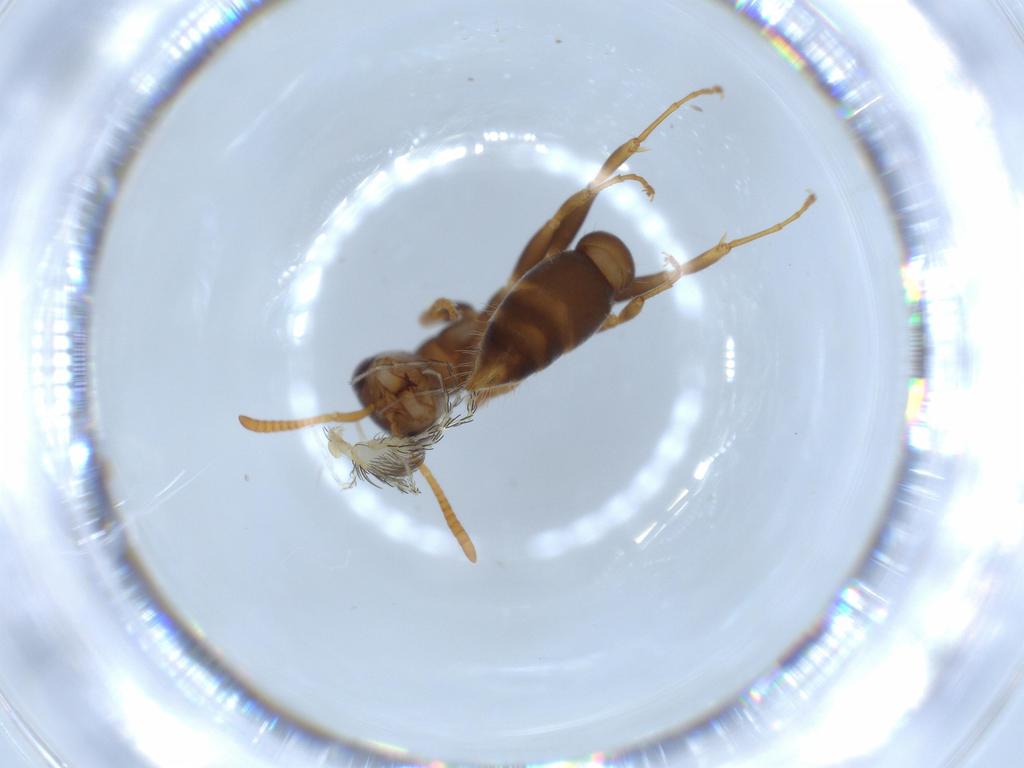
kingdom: Animalia
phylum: Arthropoda
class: Insecta
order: Hymenoptera
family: Formicidae
